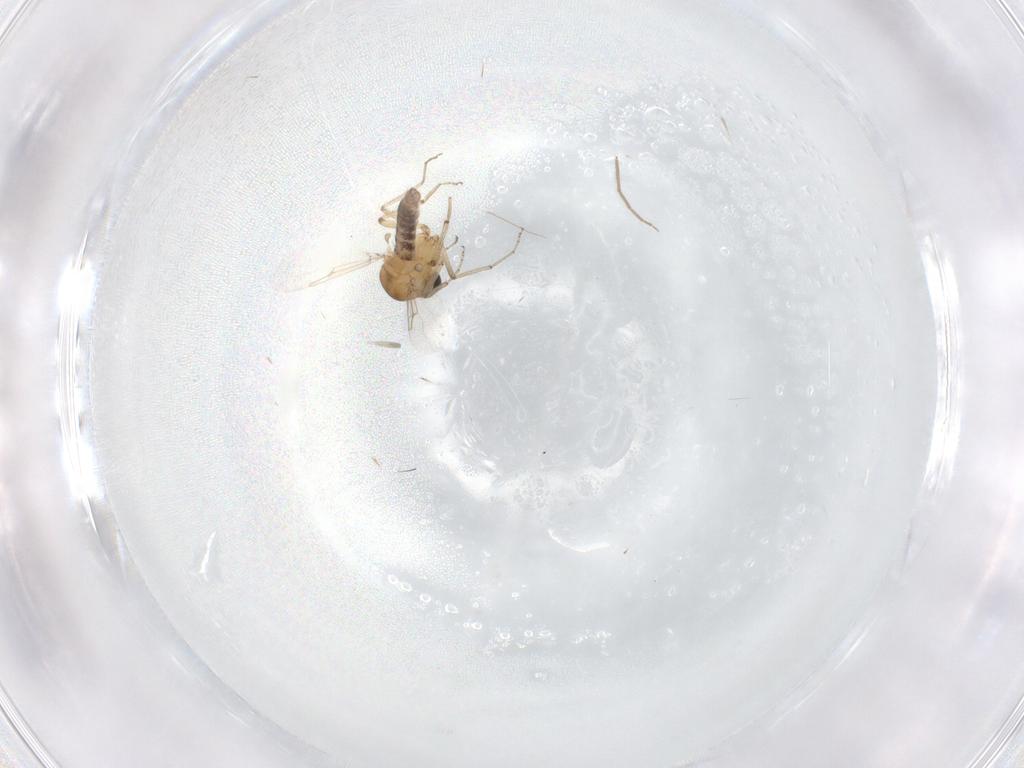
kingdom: Animalia
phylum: Arthropoda
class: Insecta
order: Diptera
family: Ceratopogonidae
